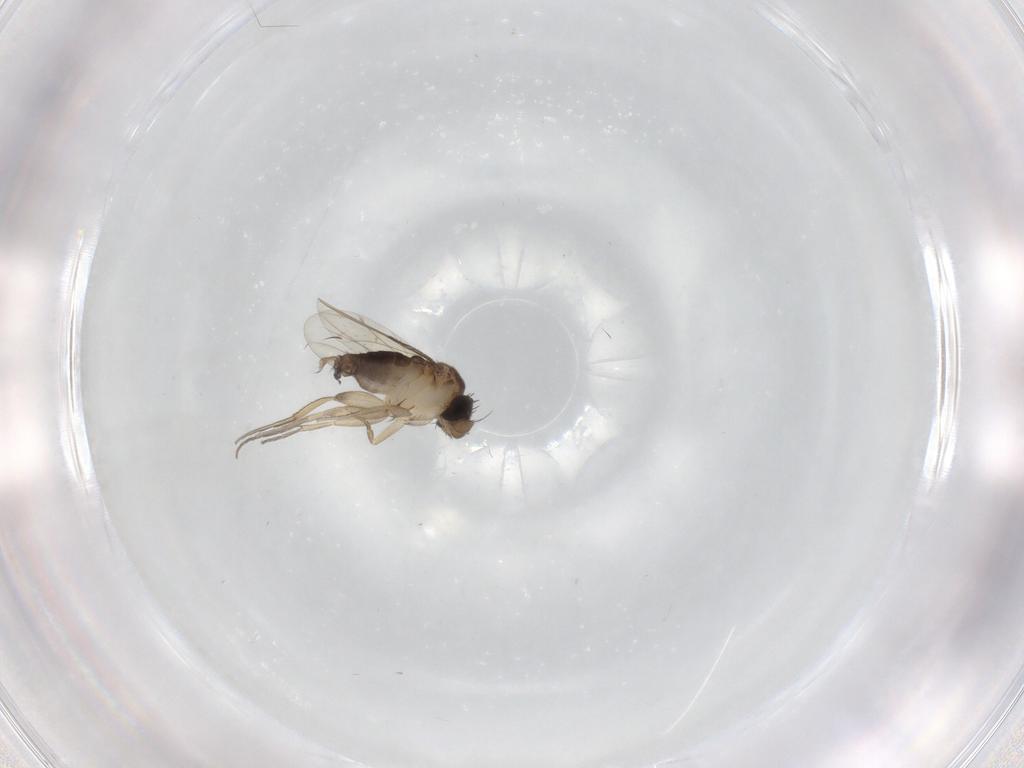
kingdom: Animalia
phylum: Arthropoda
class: Insecta
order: Diptera
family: Phoridae
